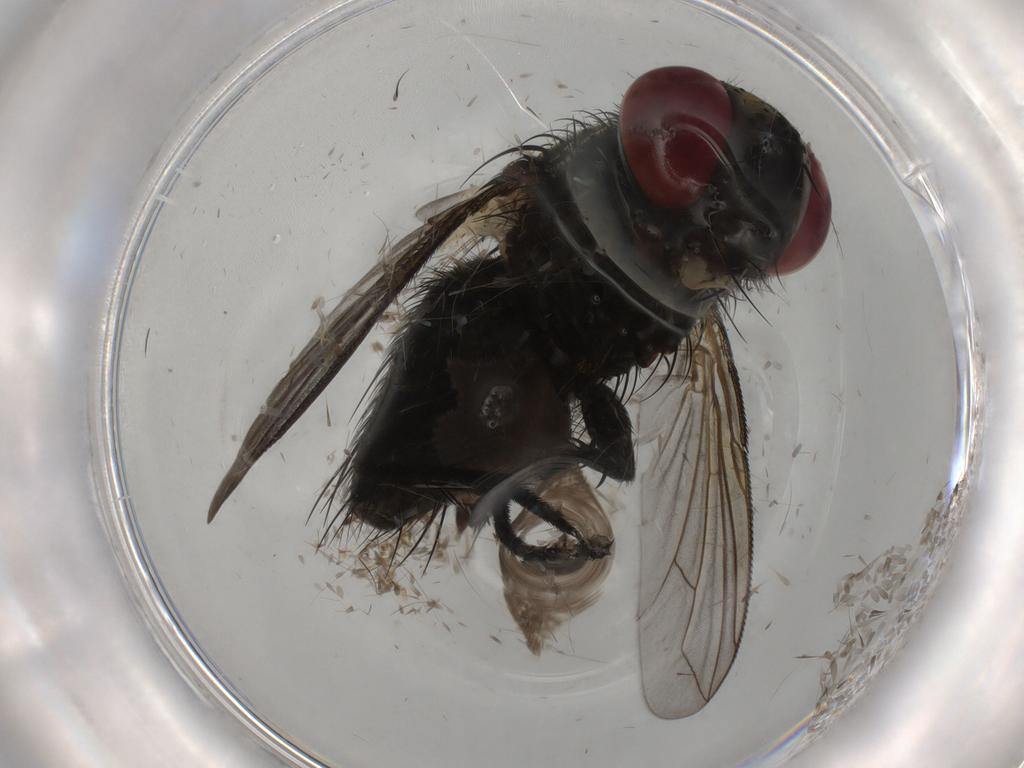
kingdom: Animalia
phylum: Arthropoda
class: Insecta
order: Diptera
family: Tachinidae
